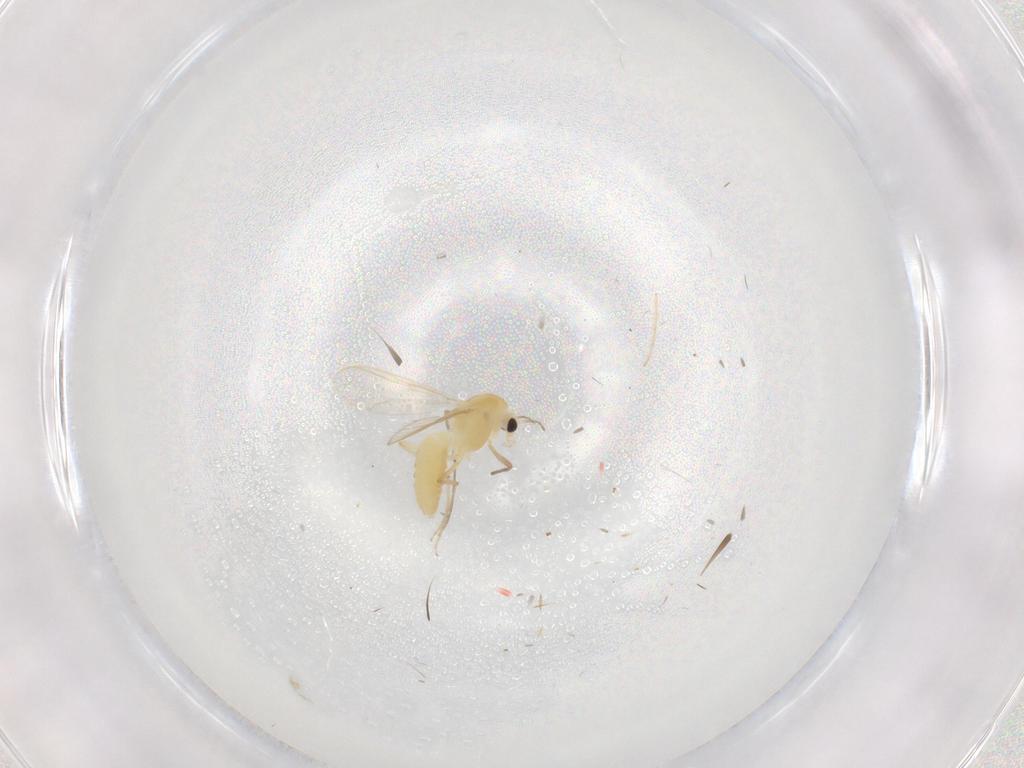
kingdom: Animalia
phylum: Arthropoda
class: Insecta
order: Diptera
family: Chironomidae
